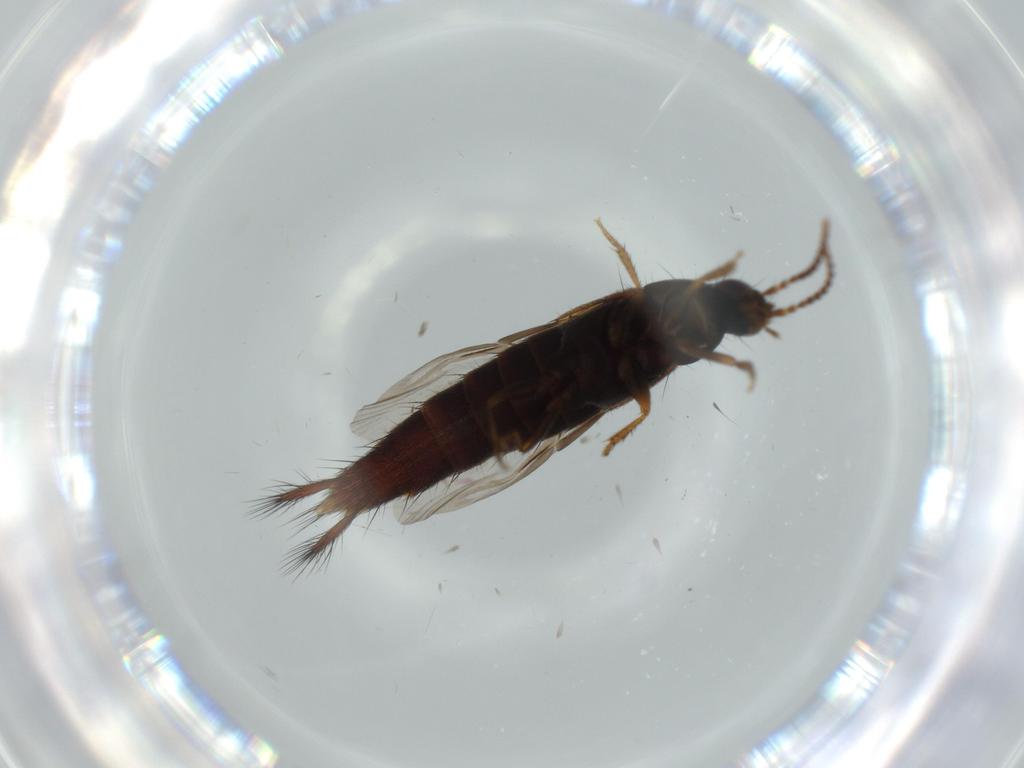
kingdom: Animalia
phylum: Arthropoda
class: Insecta
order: Coleoptera
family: Staphylinidae
